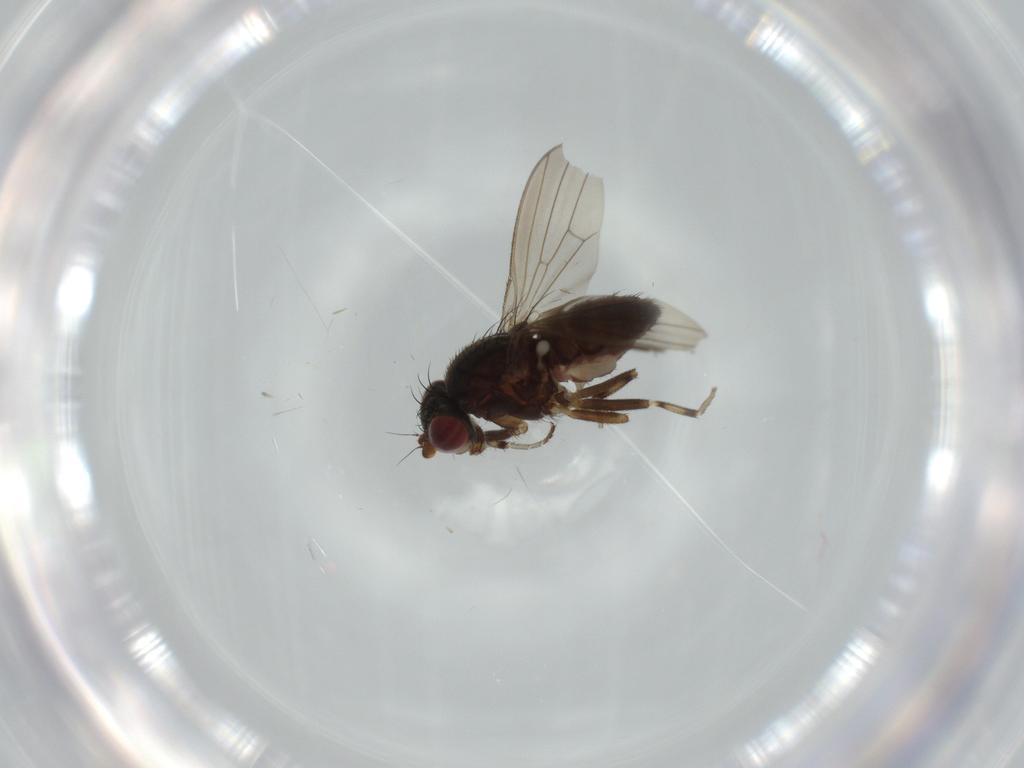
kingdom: Animalia
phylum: Arthropoda
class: Insecta
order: Diptera
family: Heleomyzidae
